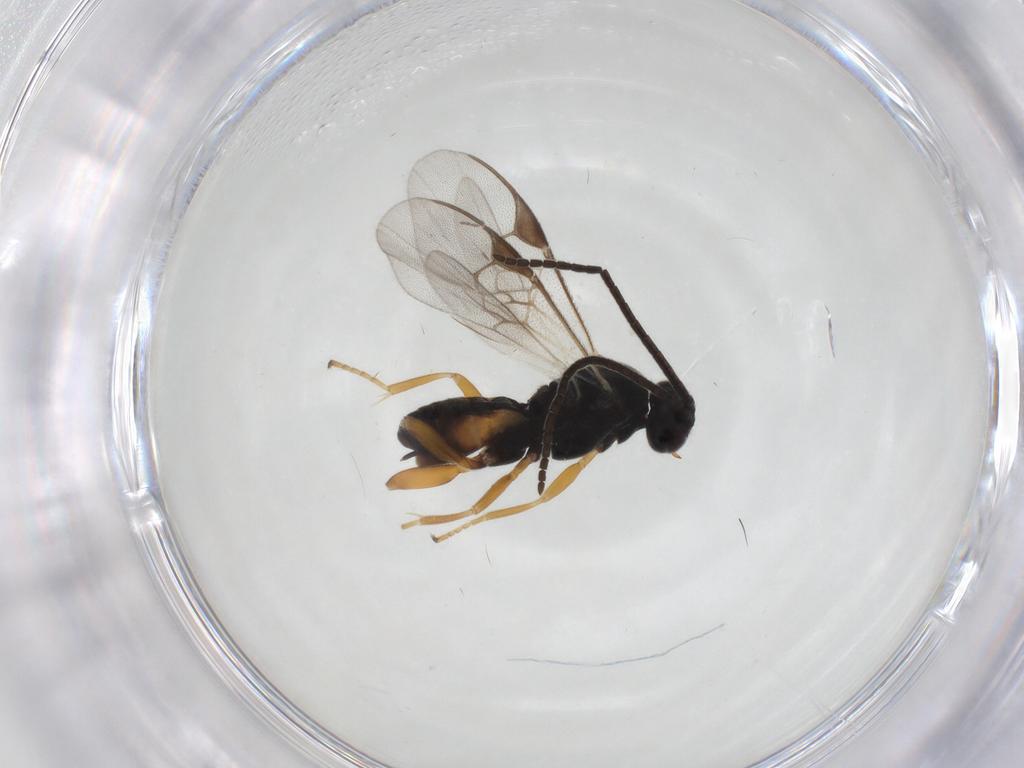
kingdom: Animalia
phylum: Arthropoda
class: Insecta
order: Hymenoptera
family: Braconidae
